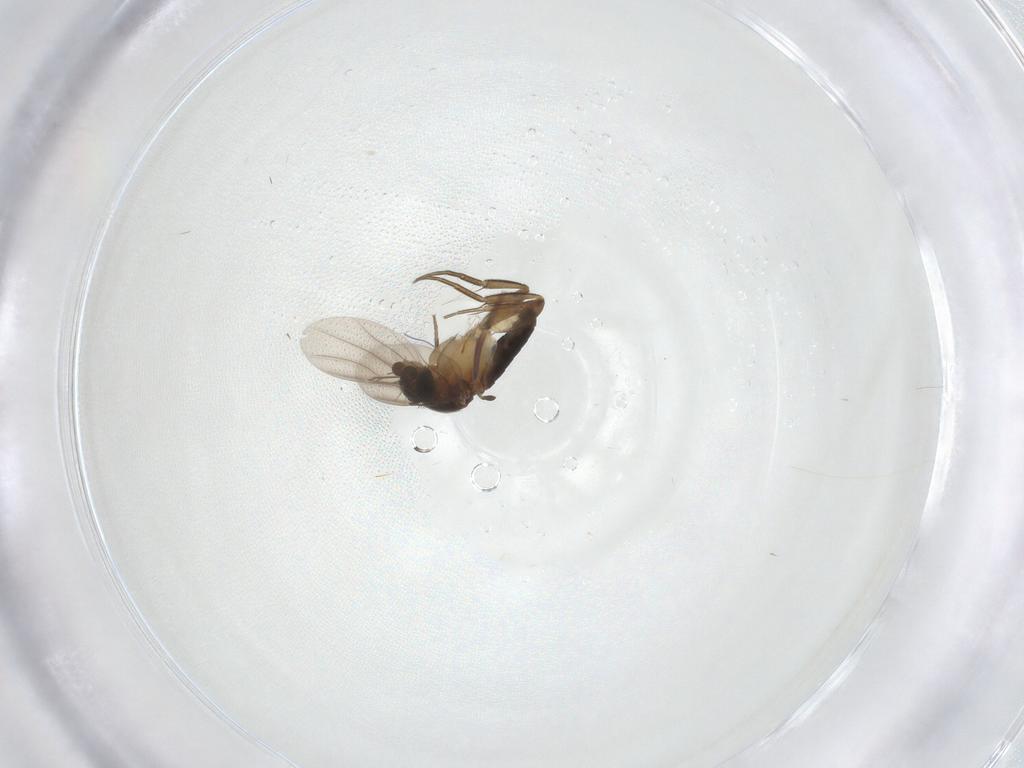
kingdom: Animalia
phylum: Arthropoda
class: Insecta
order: Diptera
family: Phoridae
